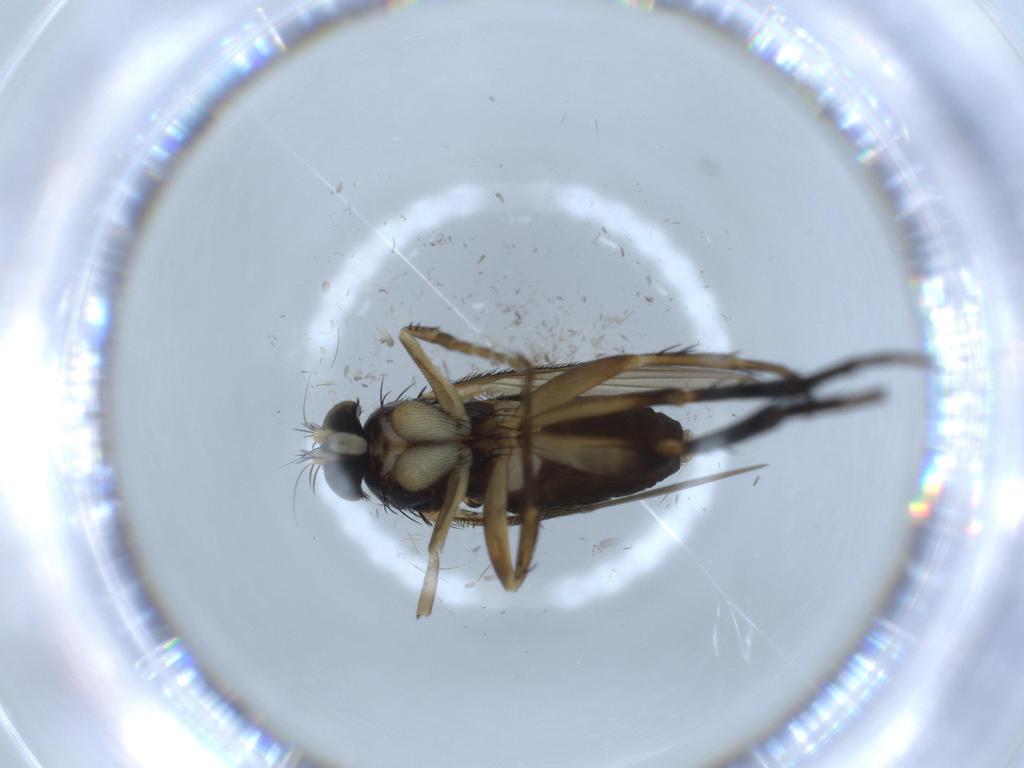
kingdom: Animalia
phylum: Arthropoda
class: Insecta
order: Diptera
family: Phoridae
